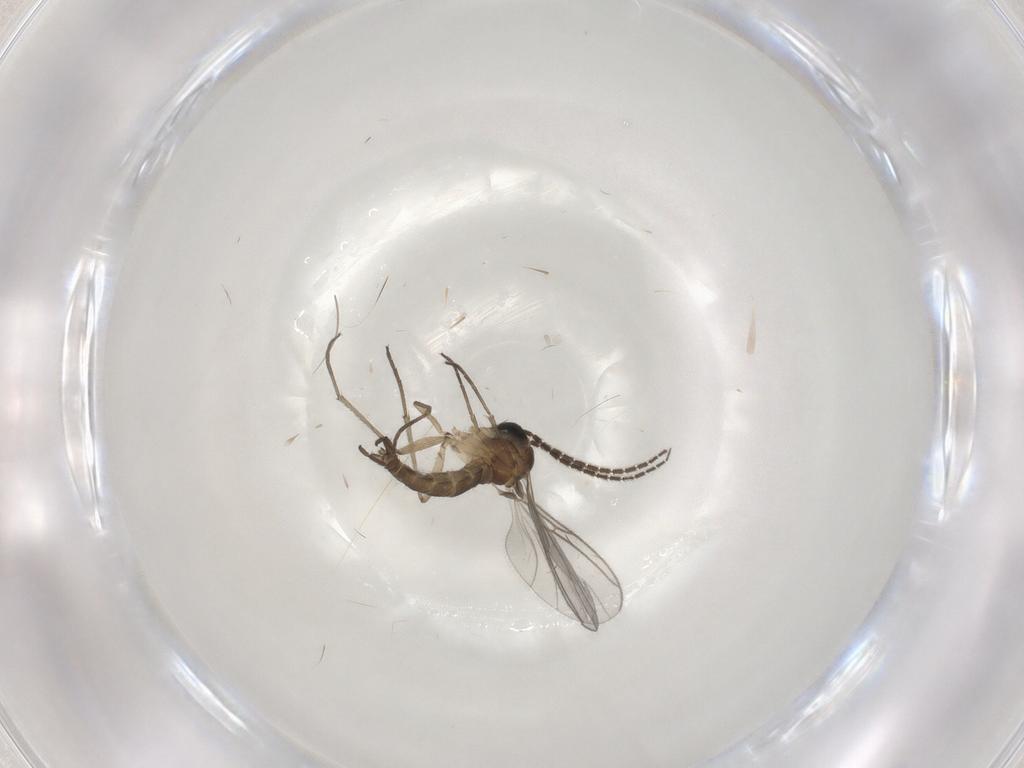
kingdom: Animalia
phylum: Arthropoda
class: Insecta
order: Diptera
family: Sciaridae
